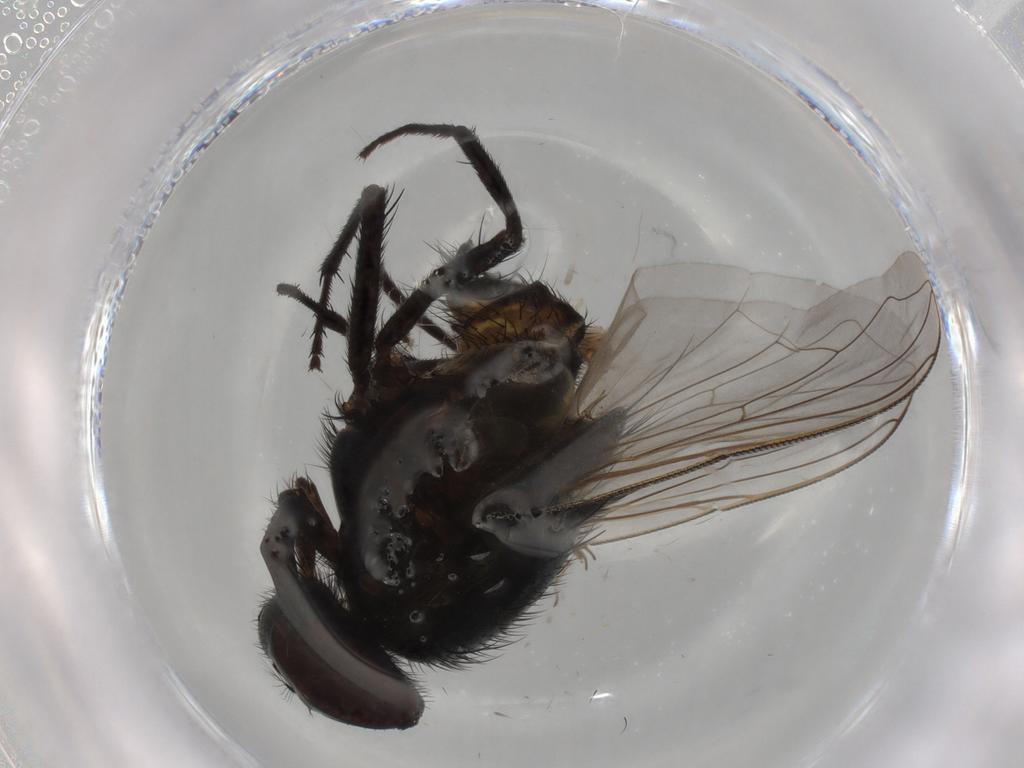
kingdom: Animalia
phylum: Arthropoda
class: Insecta
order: Diptera
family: Ceratopogonidae
